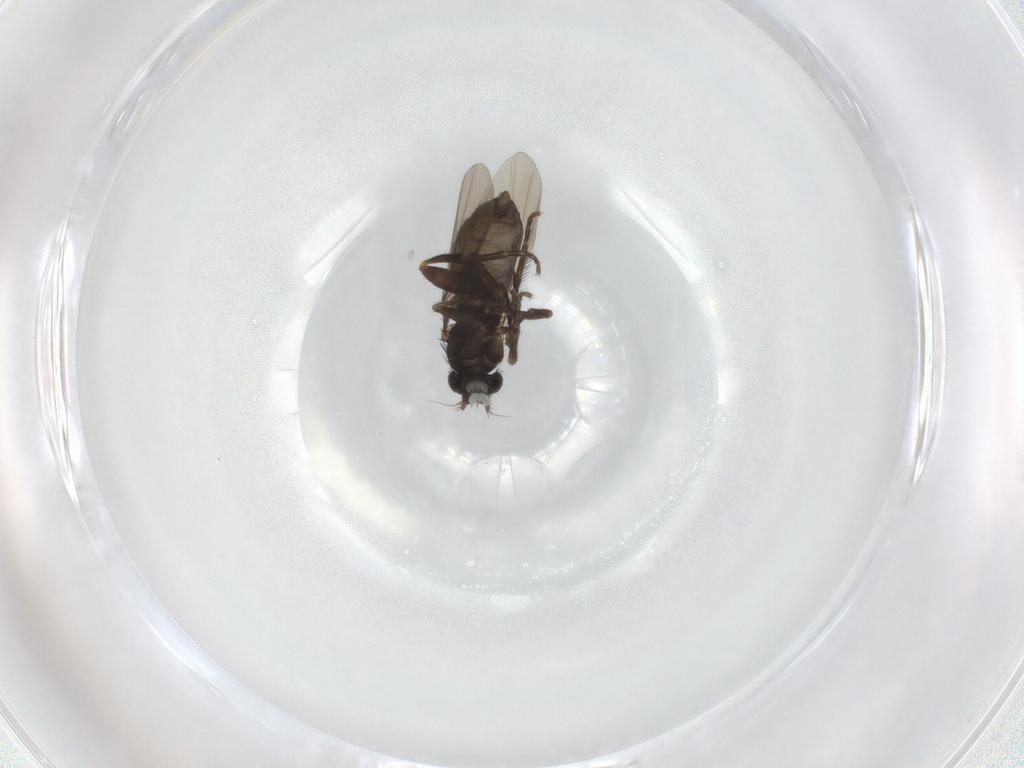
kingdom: Animalia
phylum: Arthropoda
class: Insecta
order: Diptera
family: Phoridae
